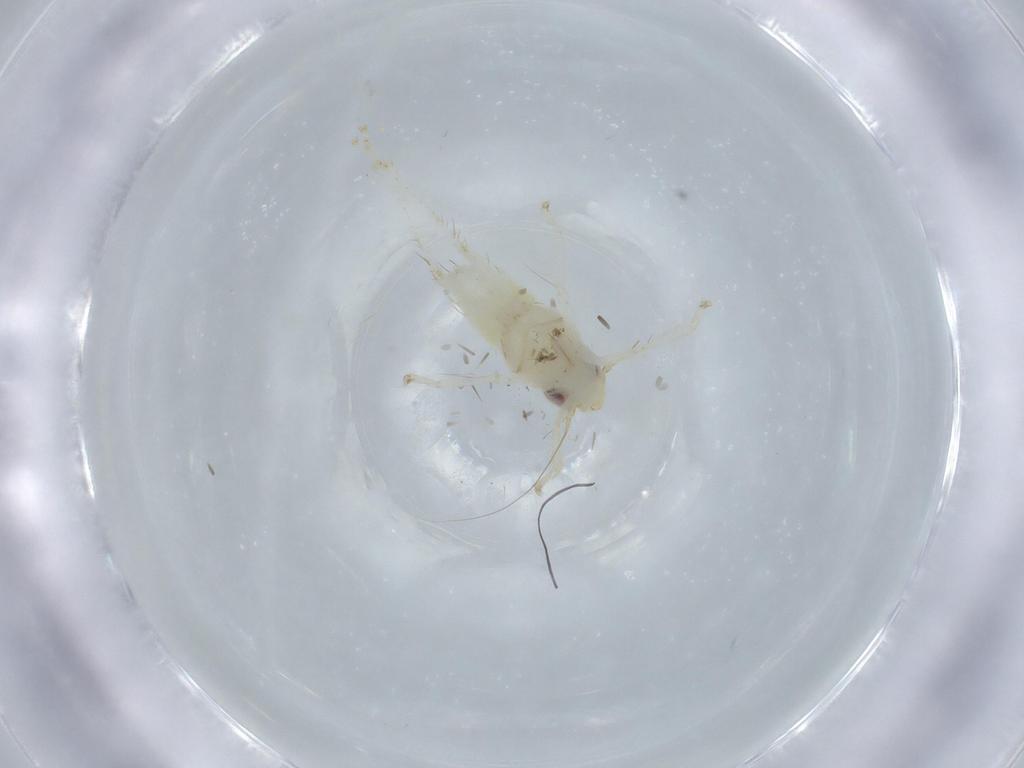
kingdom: Animalia
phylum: Arthropoda
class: Insecta
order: Hemiptera
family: Cicadellidae
